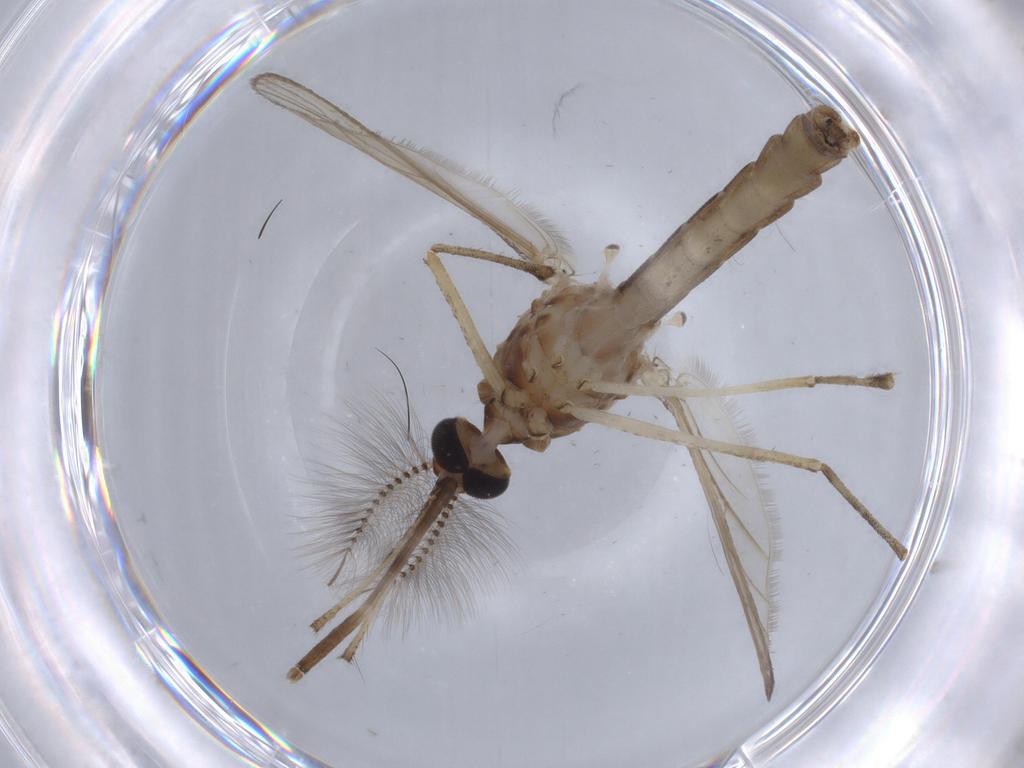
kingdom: Animalia
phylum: Arthropoda
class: Insecta
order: Diptera
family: Ceratopogonidae
